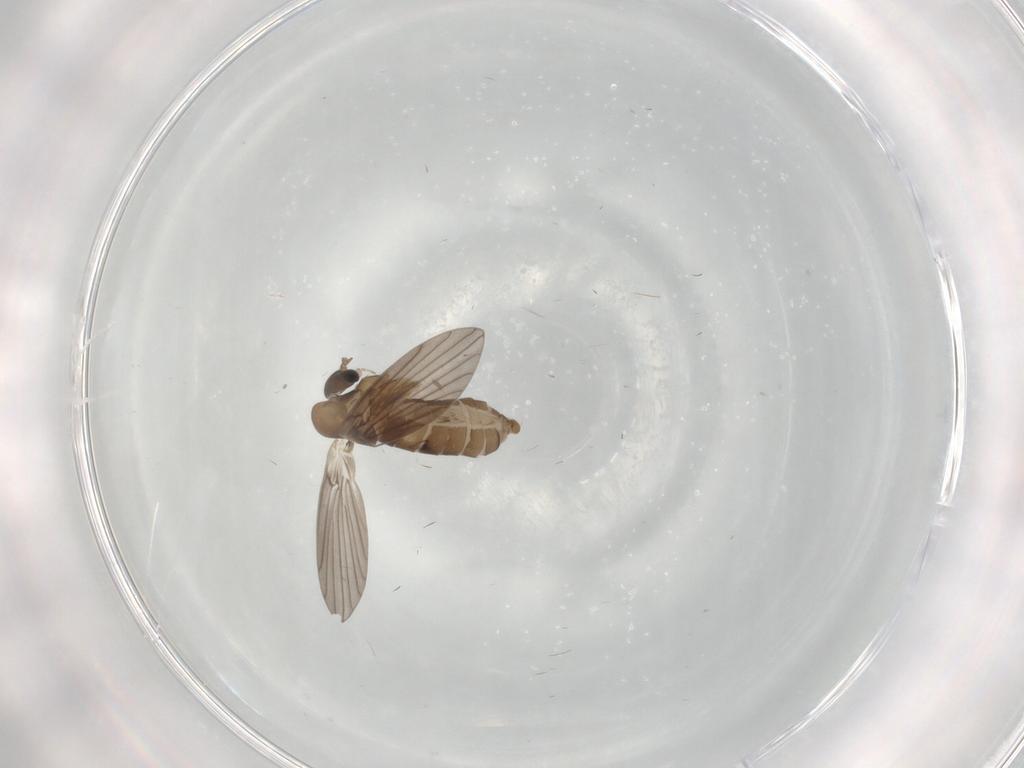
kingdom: Animalia
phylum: Arthropoda
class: Insecta
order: Diptera
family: Psychodidae
